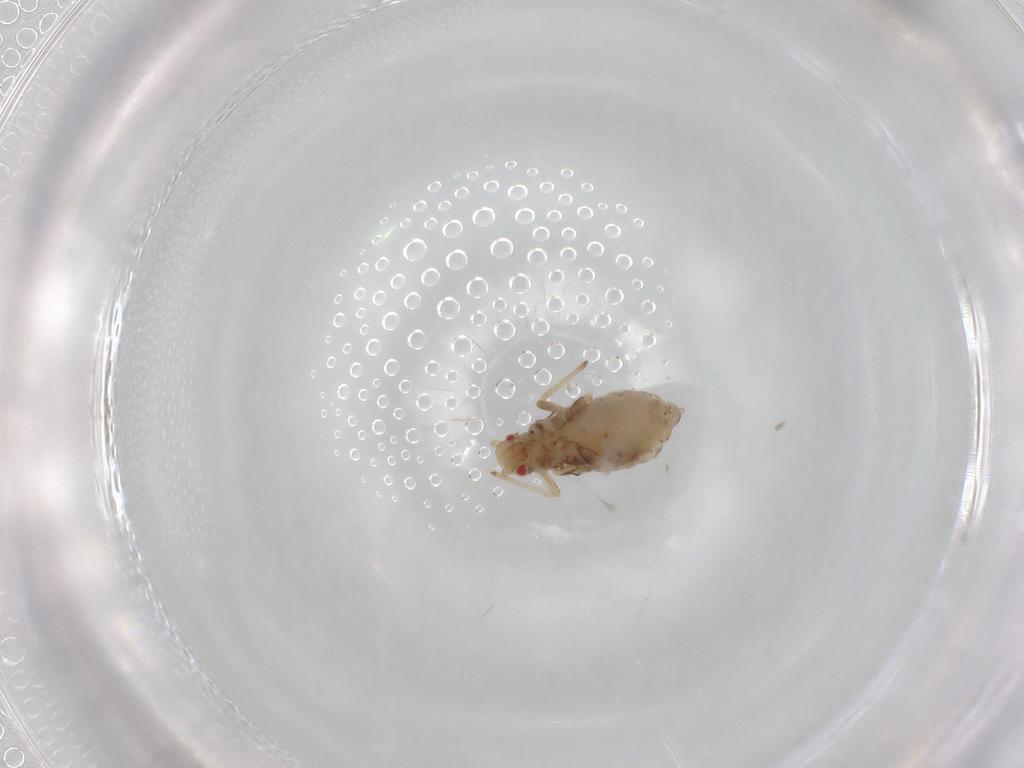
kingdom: Animalia
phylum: Arthropoda
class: Insecta
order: Hemiptera
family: Aphididae
